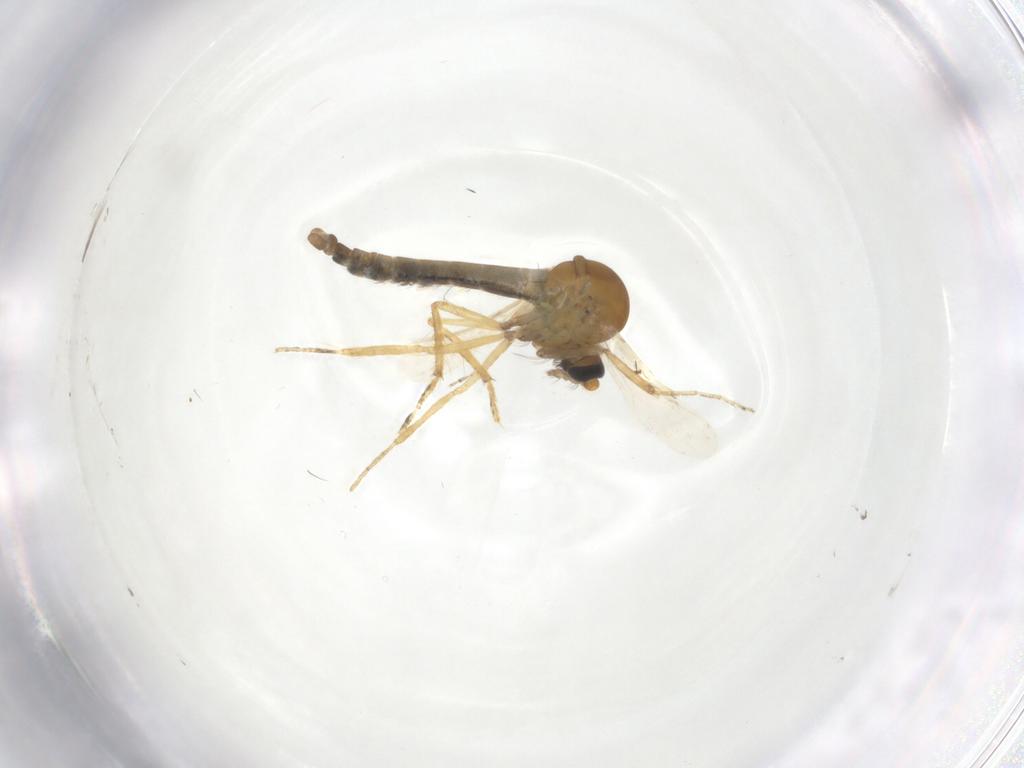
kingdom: Animalia
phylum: Arthropoda
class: Insecta
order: Diptera
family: Ceratopogonidae
